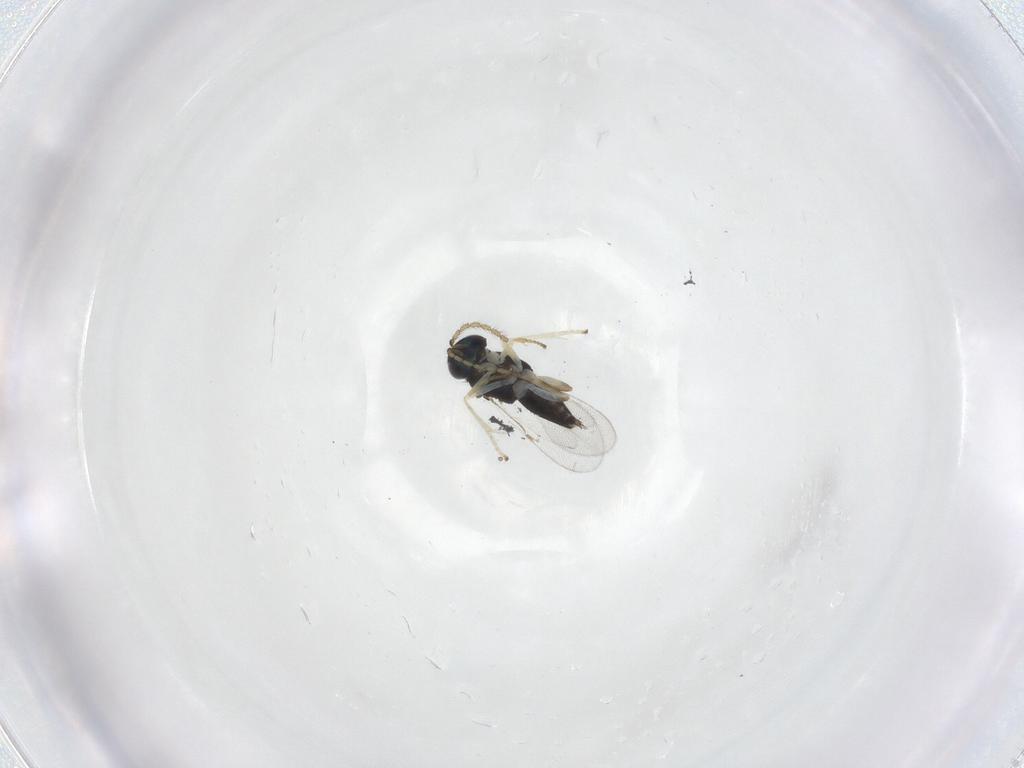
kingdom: Animalia
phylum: Arthropoda
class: Insecta
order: Hymenoptera
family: Encyrtidae
